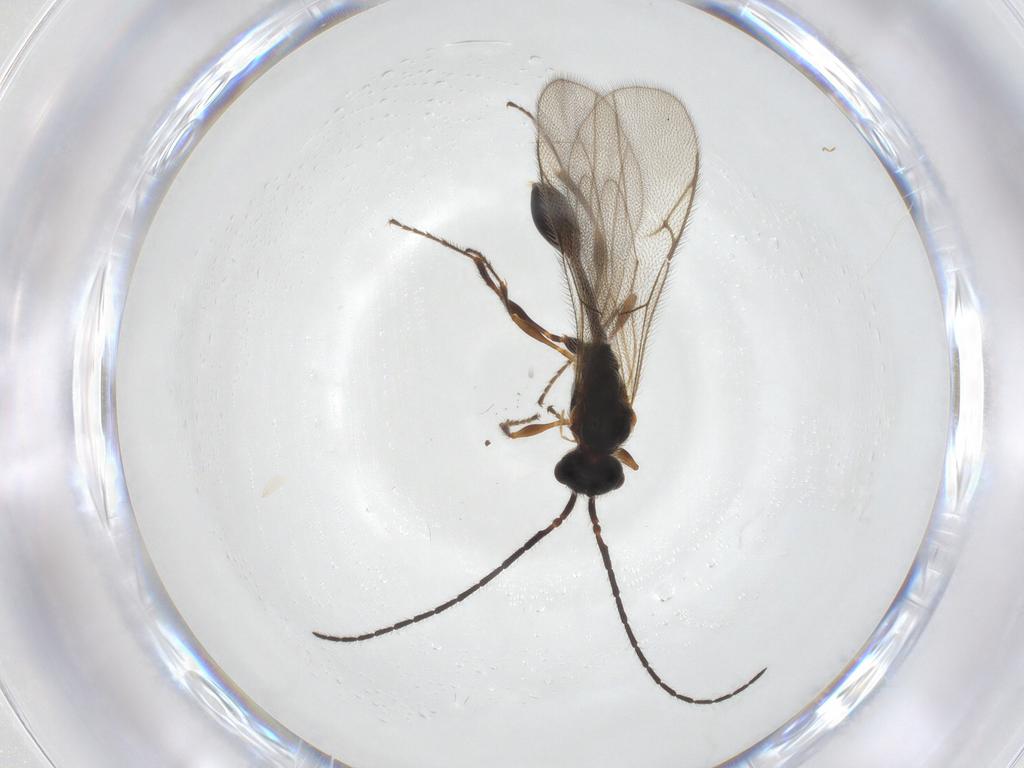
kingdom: Animalia
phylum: Arthropoda
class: Insecta
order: Hymenoptera
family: Diapriidae
